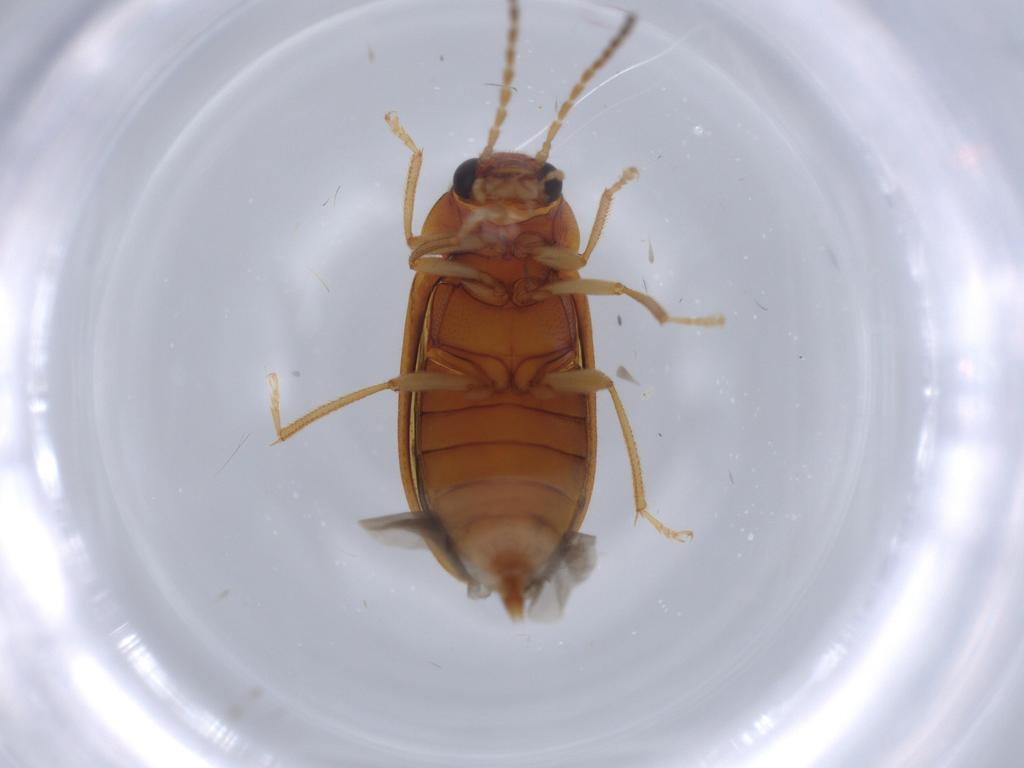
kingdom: Animalia
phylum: Arthropoda
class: Insecta
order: Coleoptera
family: Ptilodactylidae
